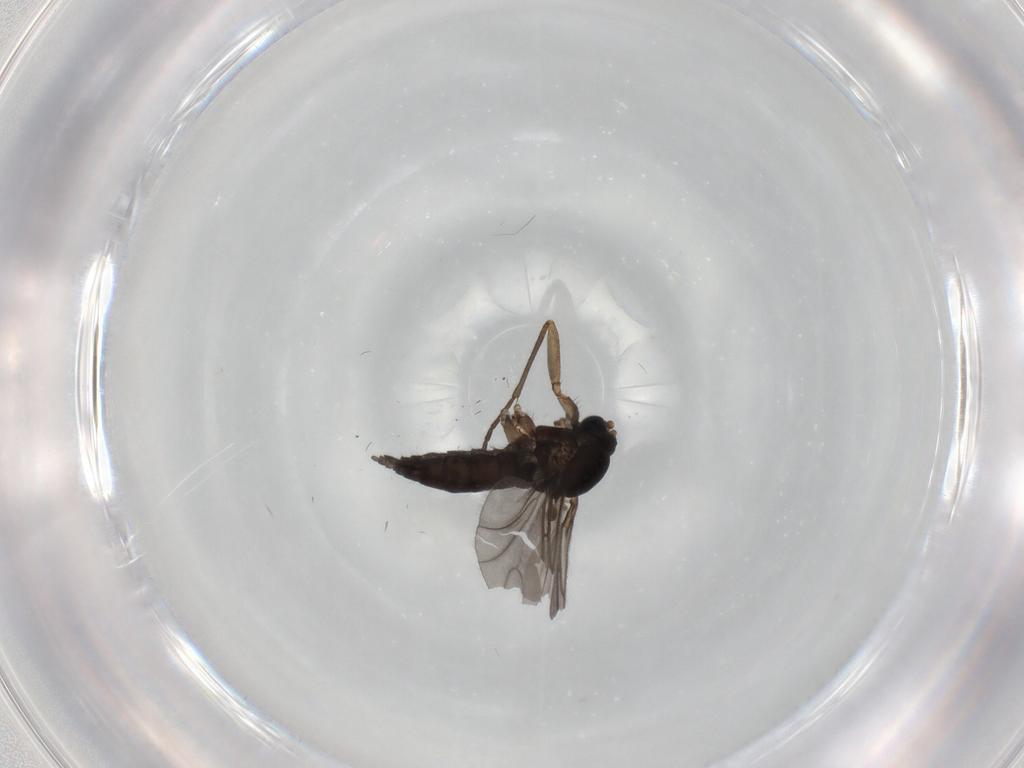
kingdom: Animalia
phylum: Arthropoda
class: Insecta
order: Diptera
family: Sciaridae
